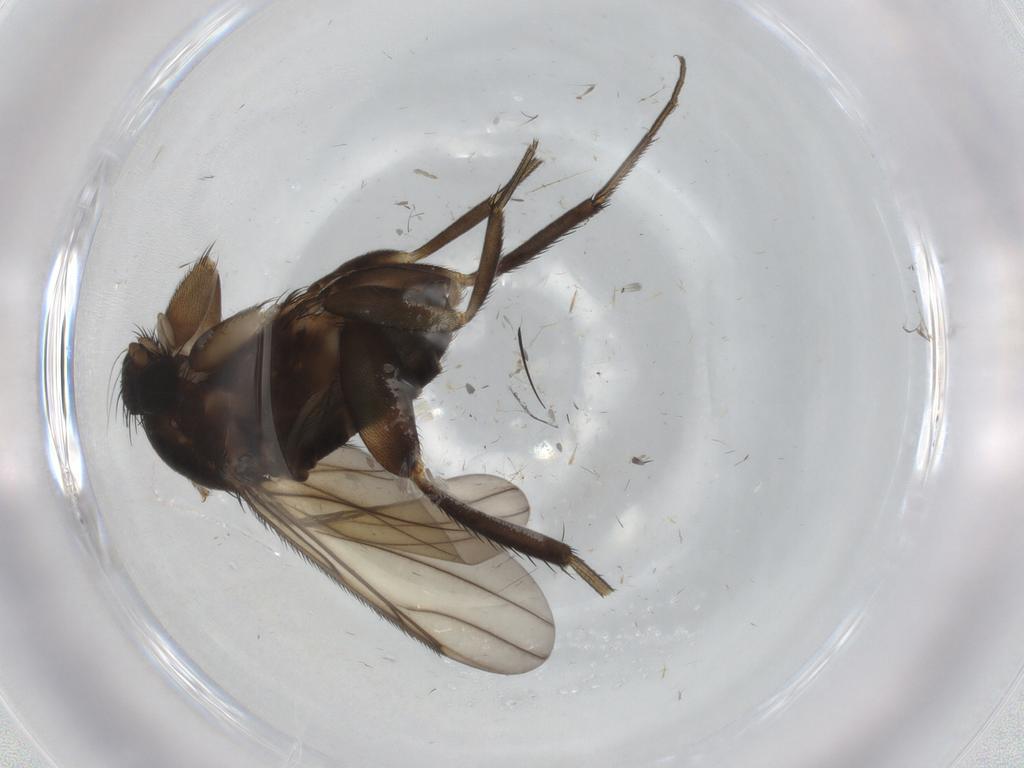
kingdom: Animalia
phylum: Arthropoda
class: Insecta
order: Diptera
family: Phoridae
